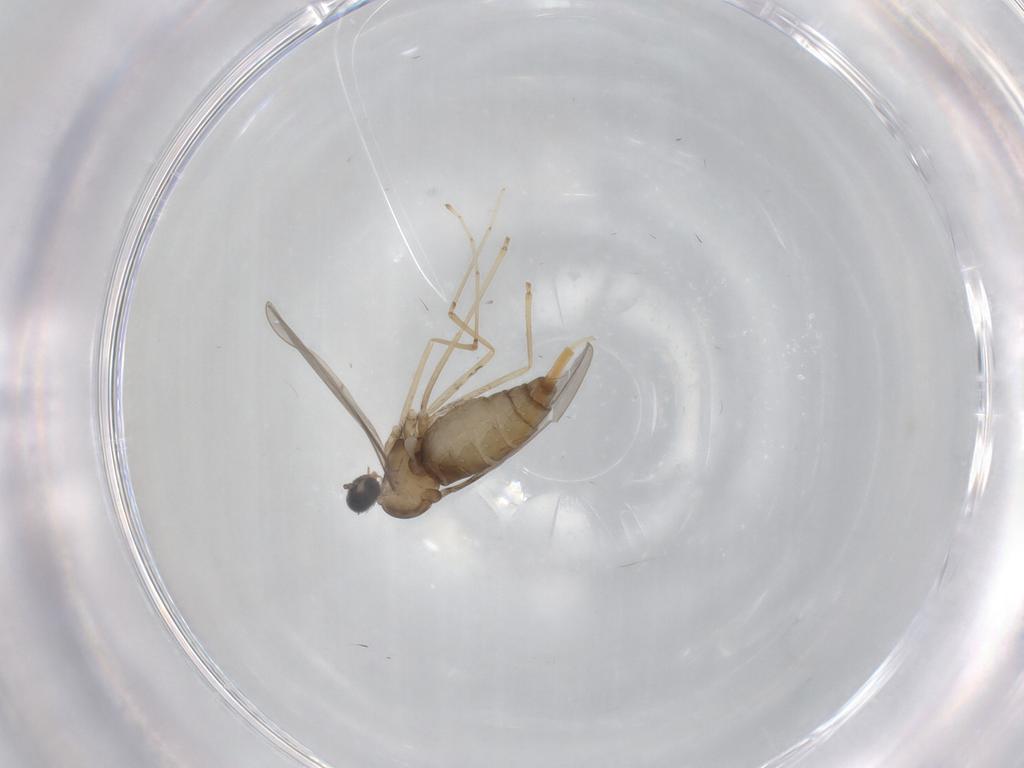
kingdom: Animalia
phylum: Arthropoda
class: Insecta
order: Diptera
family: Cecidomyiidae
